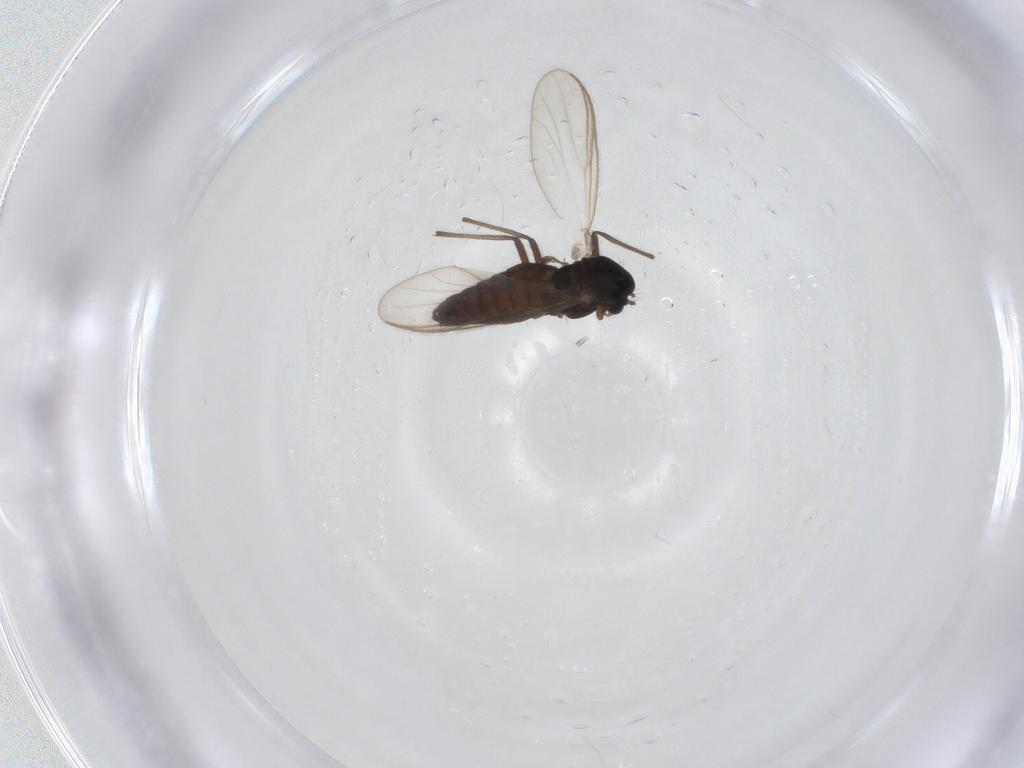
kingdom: Animalia
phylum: Arthropoda
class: Insecta
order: Diptera
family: Chironomidae
